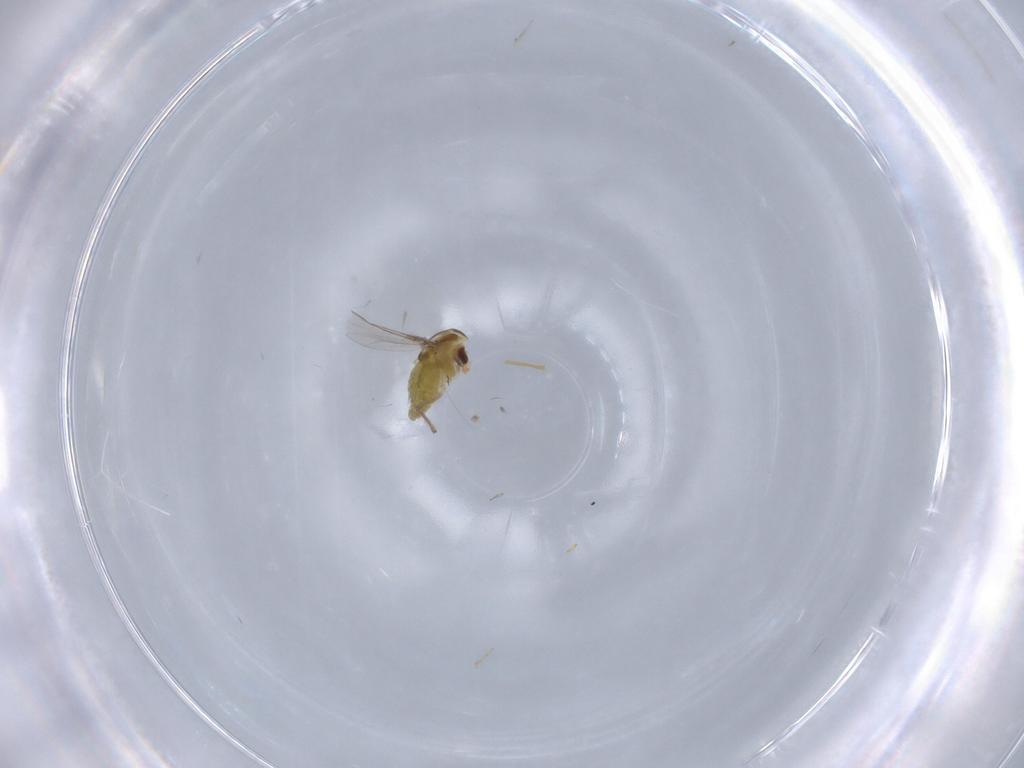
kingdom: Animalia
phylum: Arthropoda
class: Insecta
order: Diptera
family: Chironomidae
